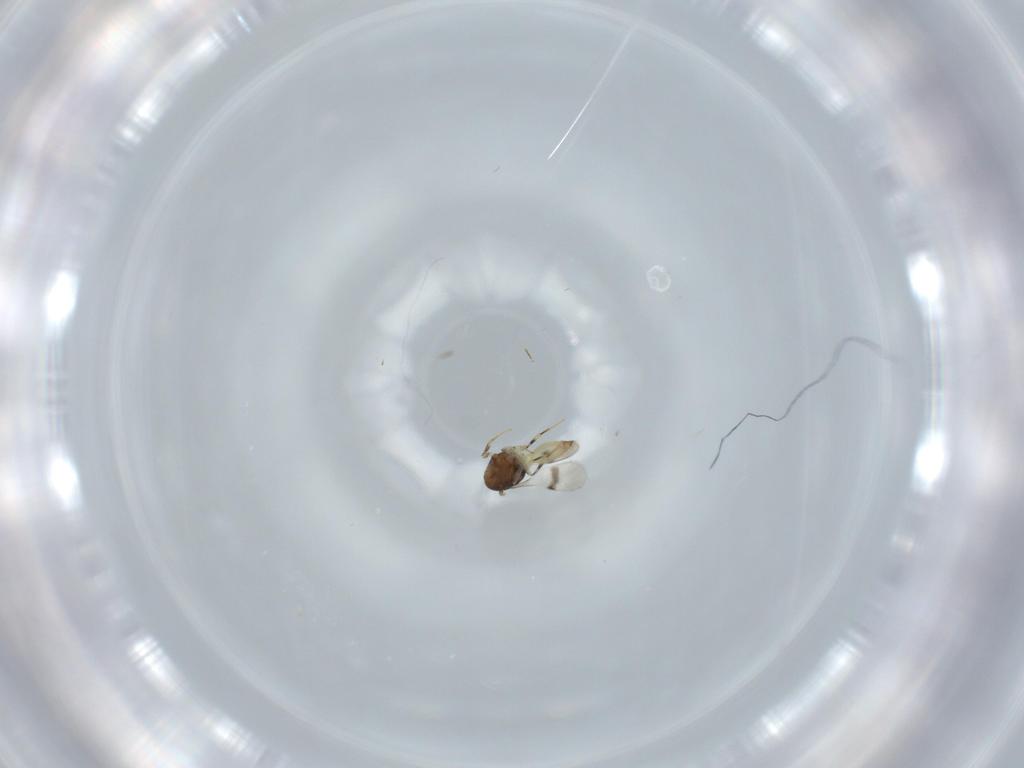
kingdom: Animalia
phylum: Arthropoda
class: Insecta
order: Hymenoptera
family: Scelionidae
